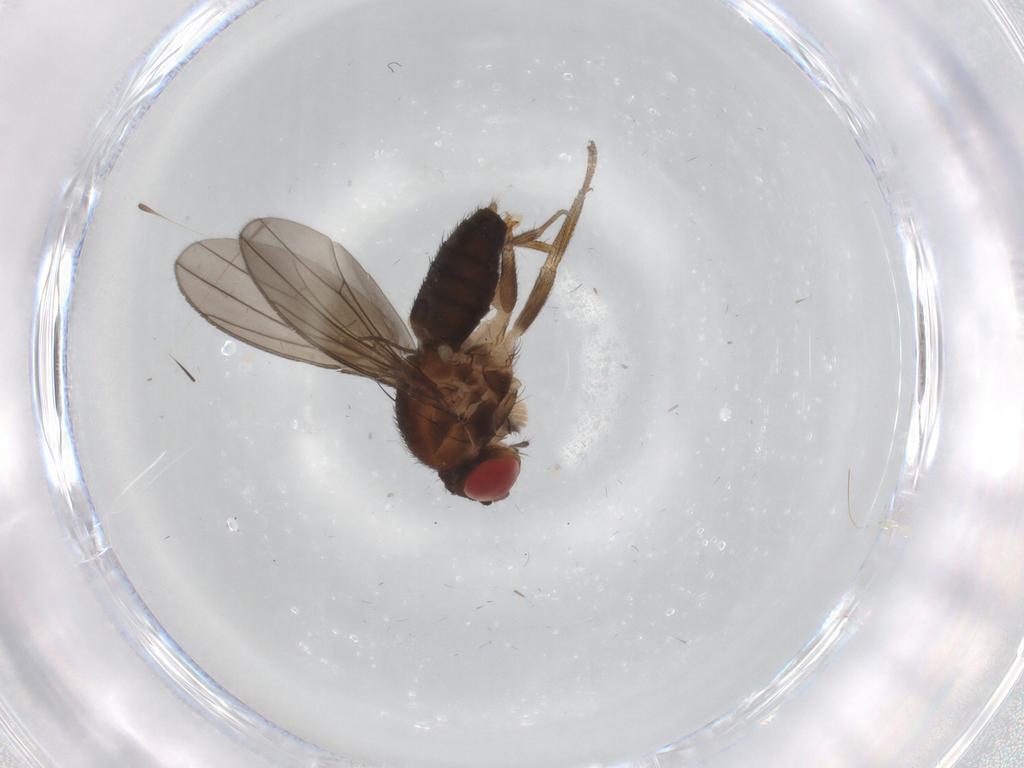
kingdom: Animalia
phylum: Arthropoda
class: Insecta
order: Diptera
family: Drosophilidae
